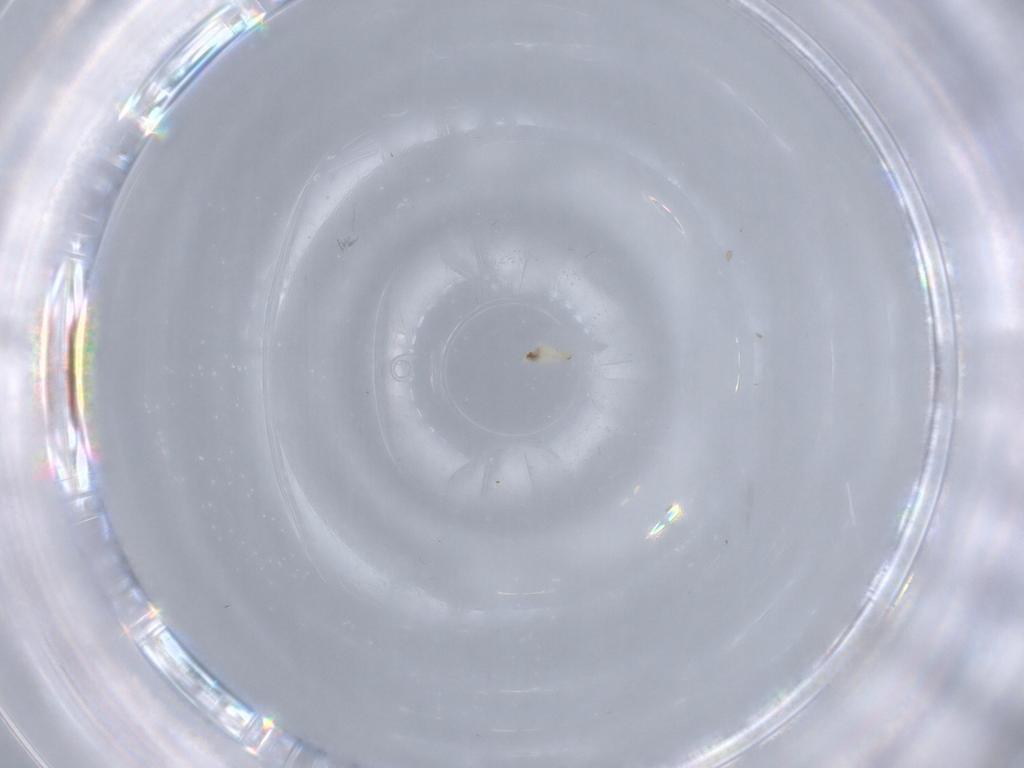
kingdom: Animalia
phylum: Arthropoda
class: Insecta
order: Diptera
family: Cecidomyiidae
